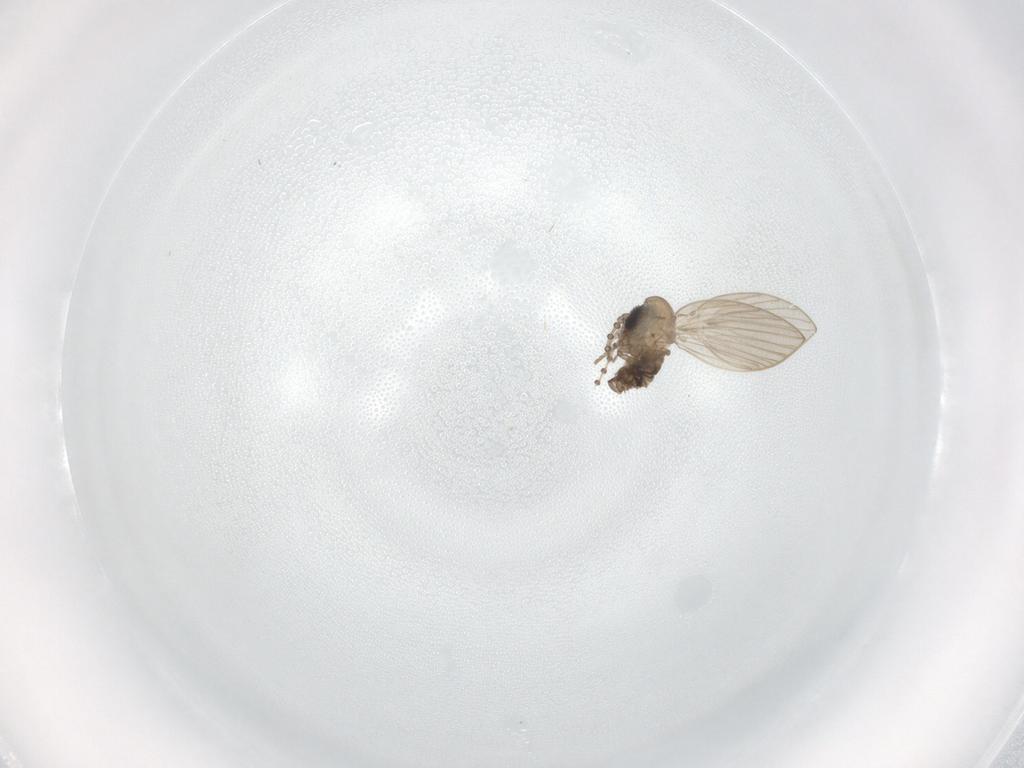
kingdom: Animalia
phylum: Arthropoda
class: Insecta
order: Diptera
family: Psychodidae
